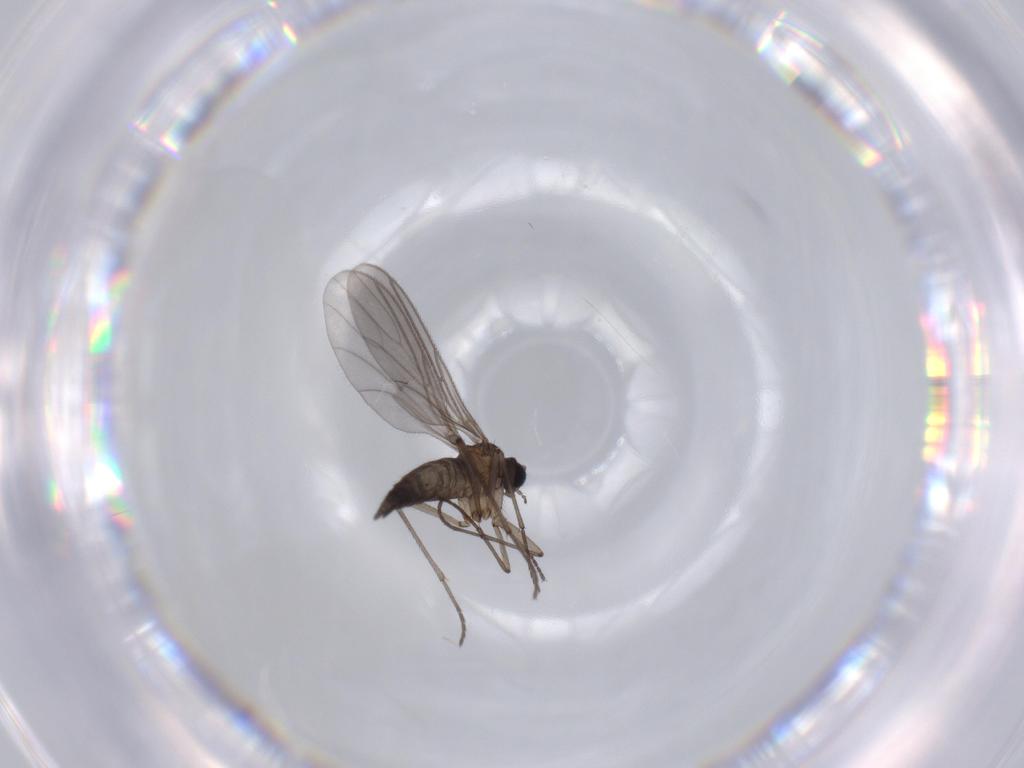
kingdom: Animalia
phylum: Arthropoda
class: Insecta
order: Diptera
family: Sciaridae
